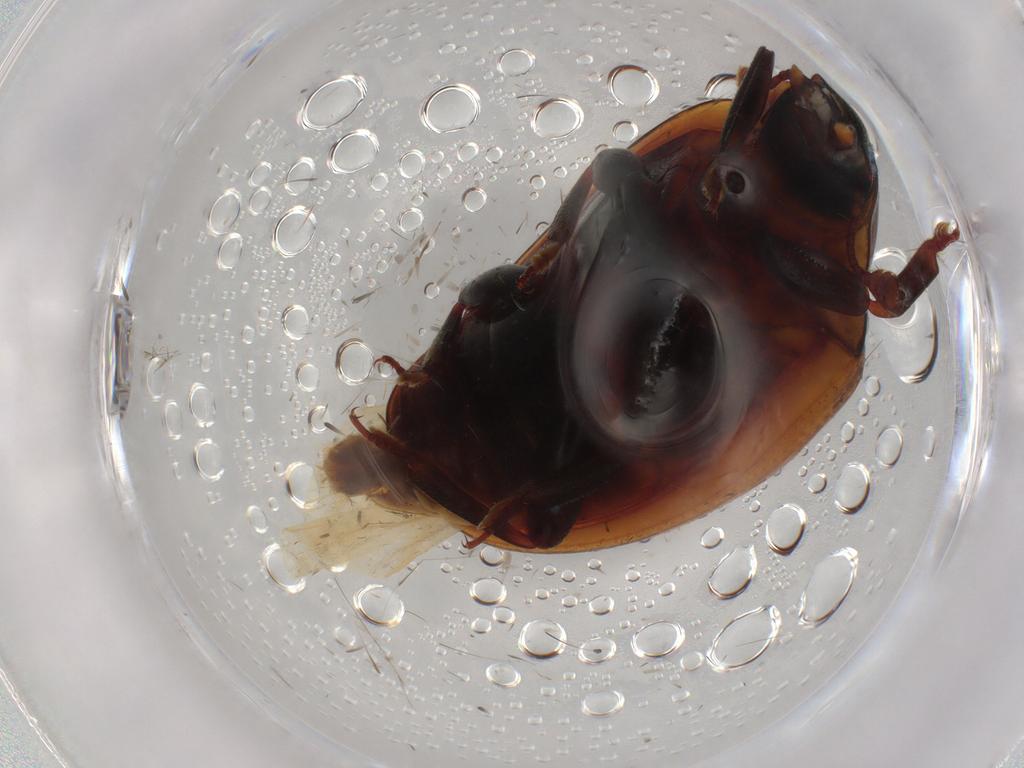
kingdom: Animalia
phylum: Arthropoda
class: Insecta
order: Coleoptera
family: Zopheridae
